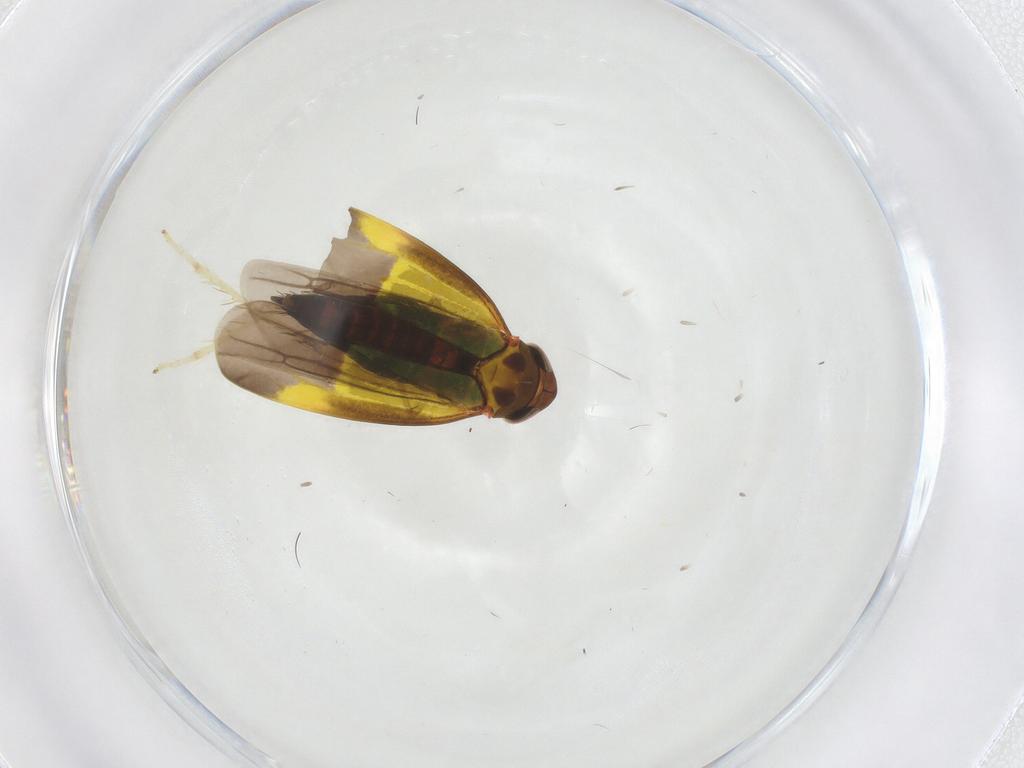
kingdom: Animalia
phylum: Arthropoda
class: Insecta
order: Hemiptera
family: Cicadellidae
